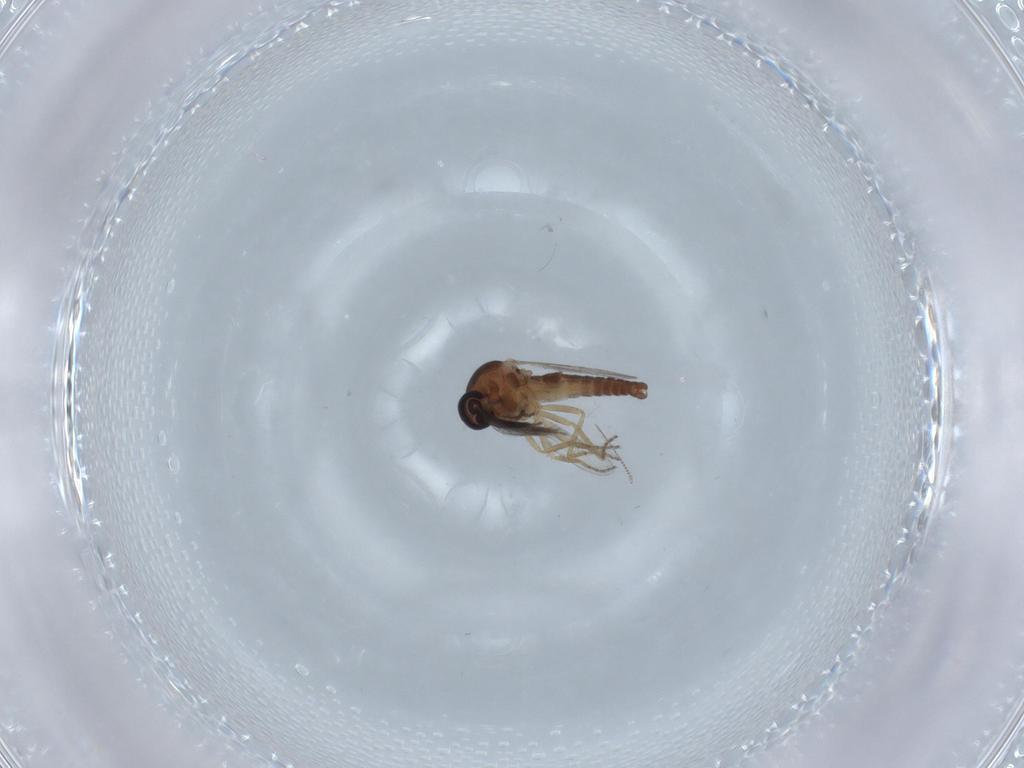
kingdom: Animalia
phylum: Arthropoda
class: Insecta
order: Diptera
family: Ceratopogonidae
